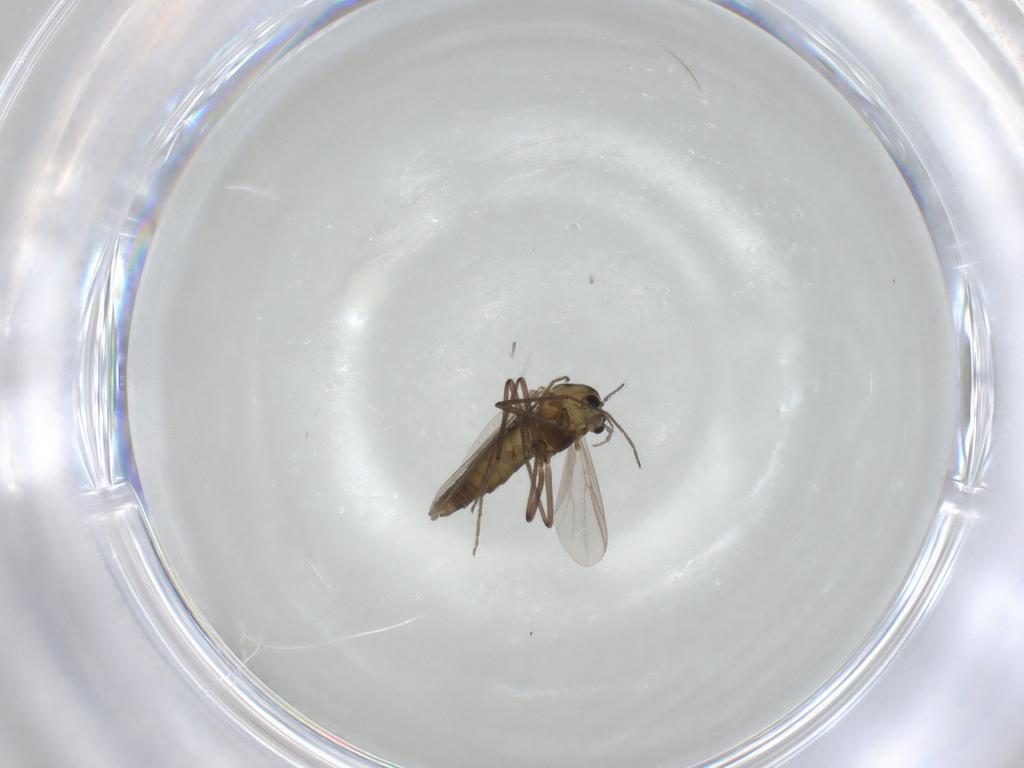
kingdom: Animalia
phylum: Arthropoda
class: Insecta
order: Diptera
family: Chironomidae
